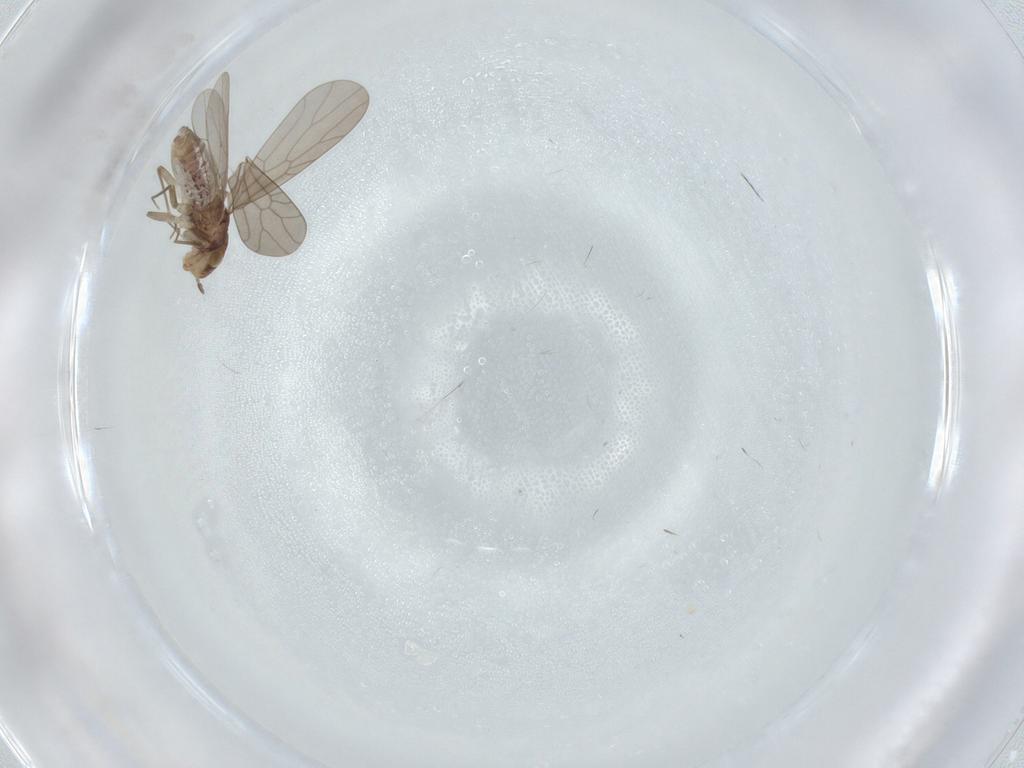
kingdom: Animalia
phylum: Arthropoda
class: Insecta
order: Psocodea
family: Lepidopsocidae
